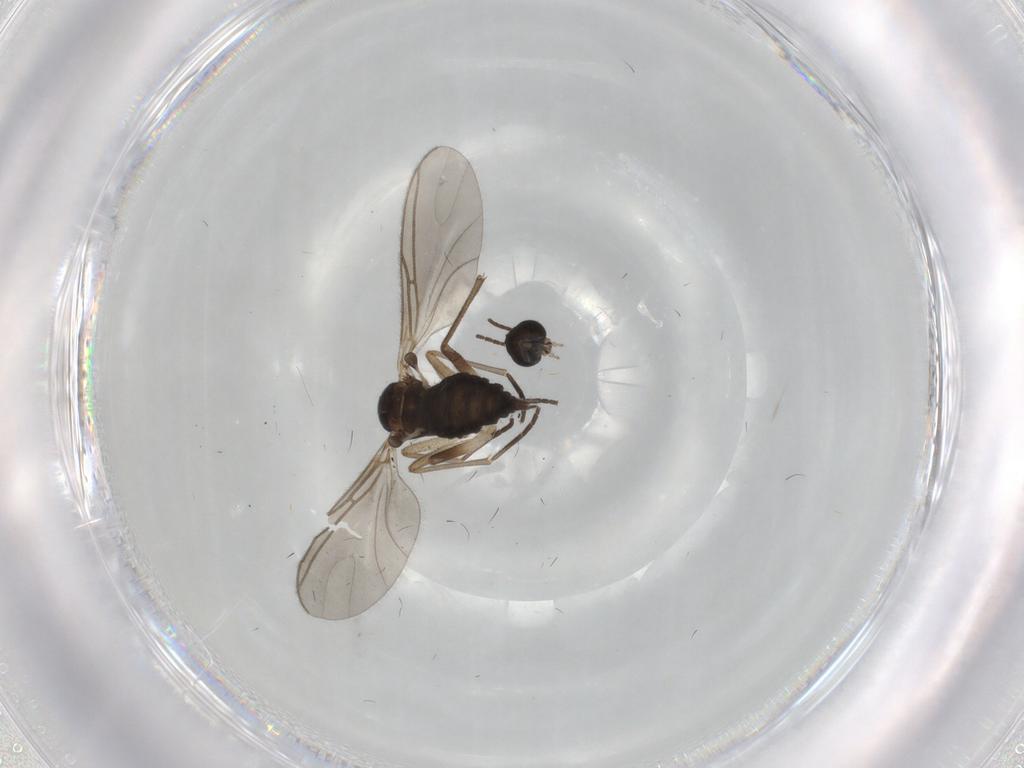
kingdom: Animalia
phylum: Arthropoda
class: Insecta
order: Diptera
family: Sciaridae
